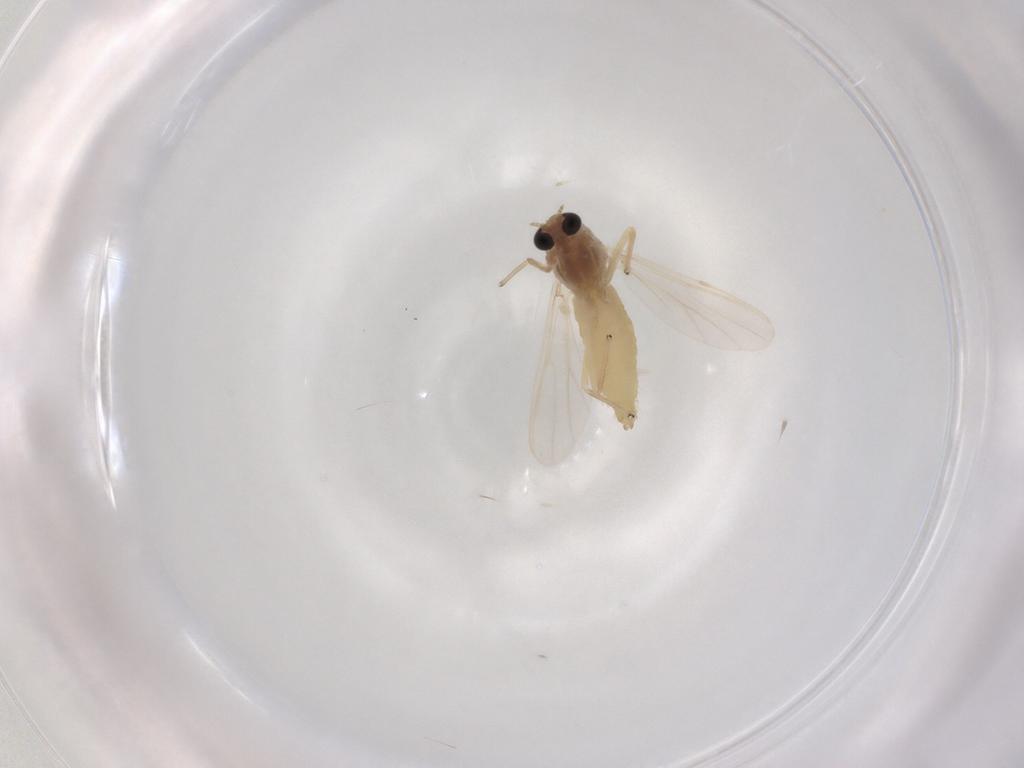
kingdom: Animalia
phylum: Arthropoda
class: Insecta
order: Diptera
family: Chironomidae
